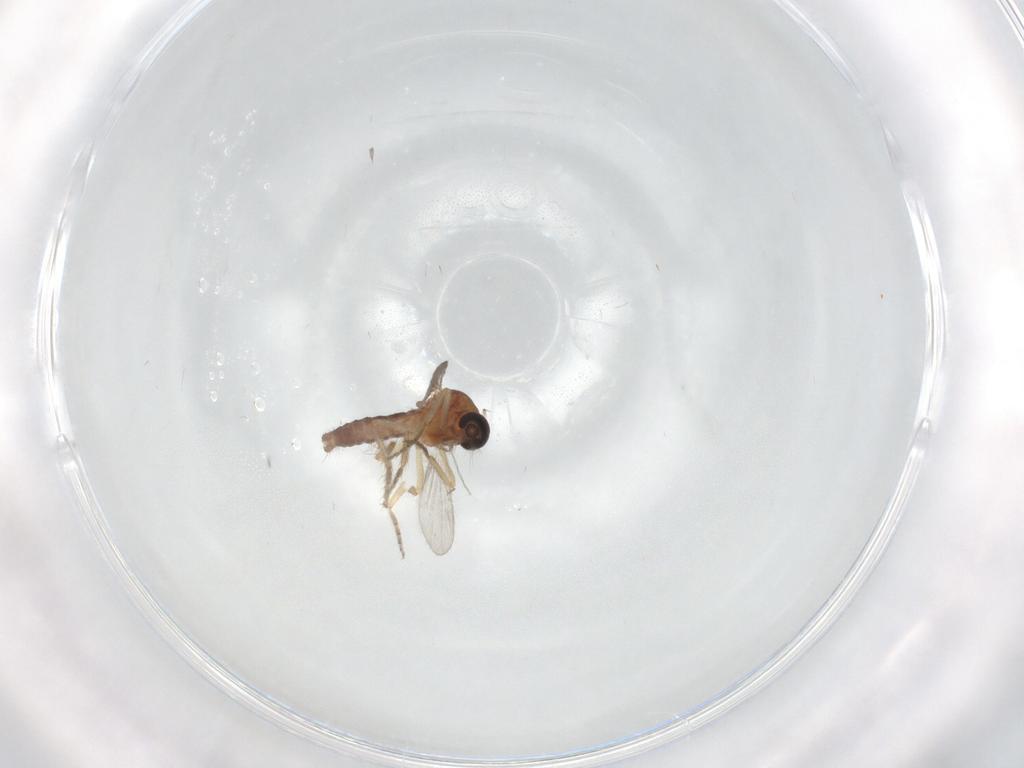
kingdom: Animalia
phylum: Arthropoda
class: Insecta
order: Diptera
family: Ceratopogonidae
